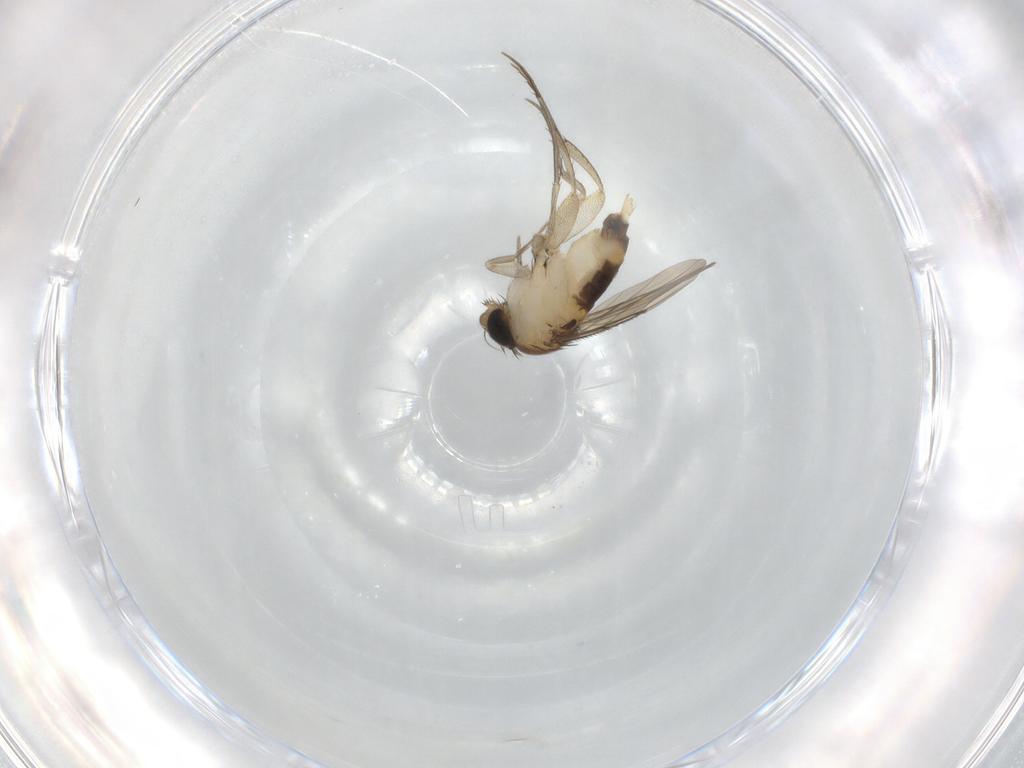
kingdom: Animalia
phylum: Arthropoda
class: Insecta
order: Diptera
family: Phoridae
